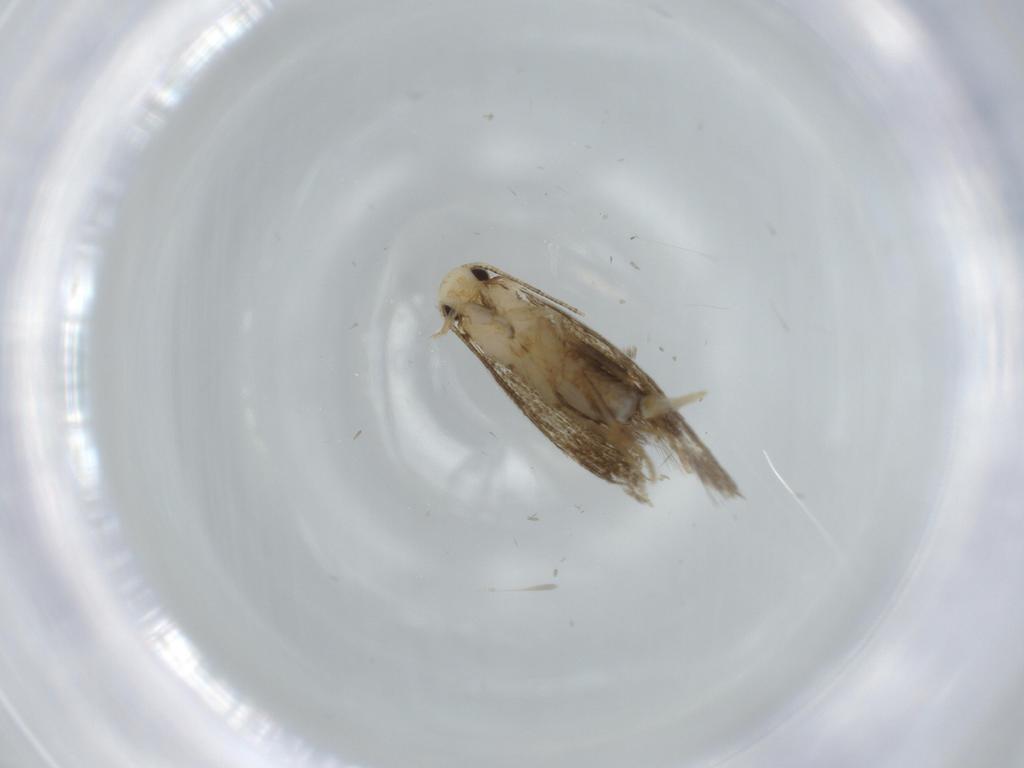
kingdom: Animalia
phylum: Arthropoda
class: Insecta
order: Lepidoptera
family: Tineidae
